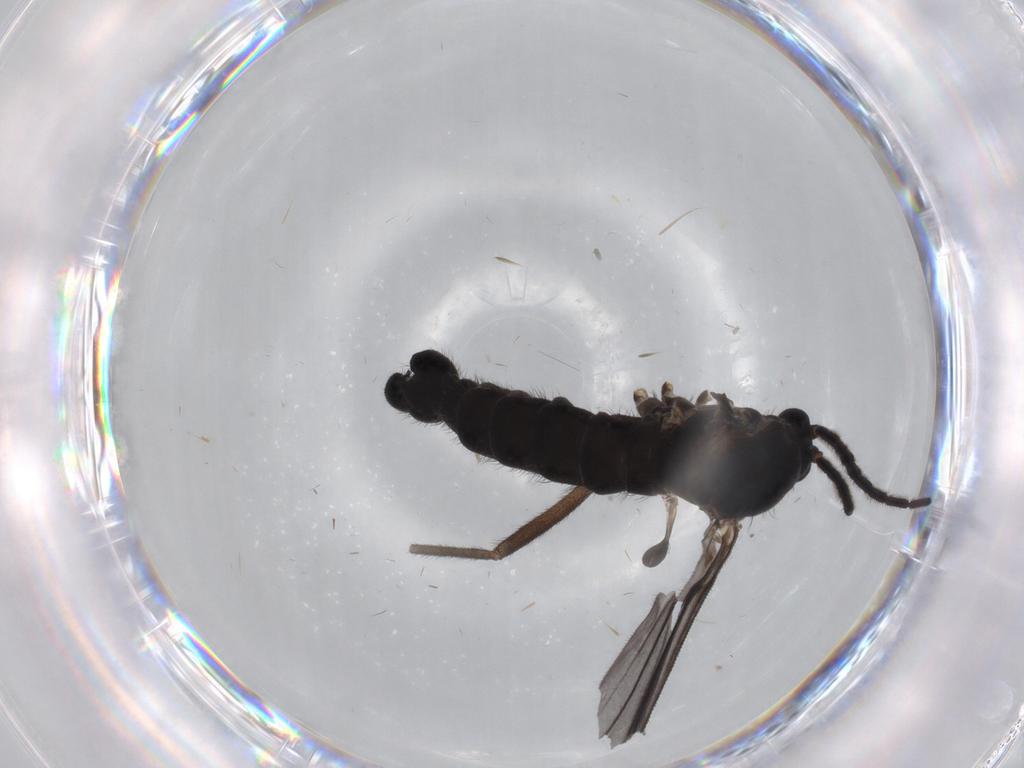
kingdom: Animalia
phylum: Arthropoda
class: Insecta
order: Diptera
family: Sciaridae
